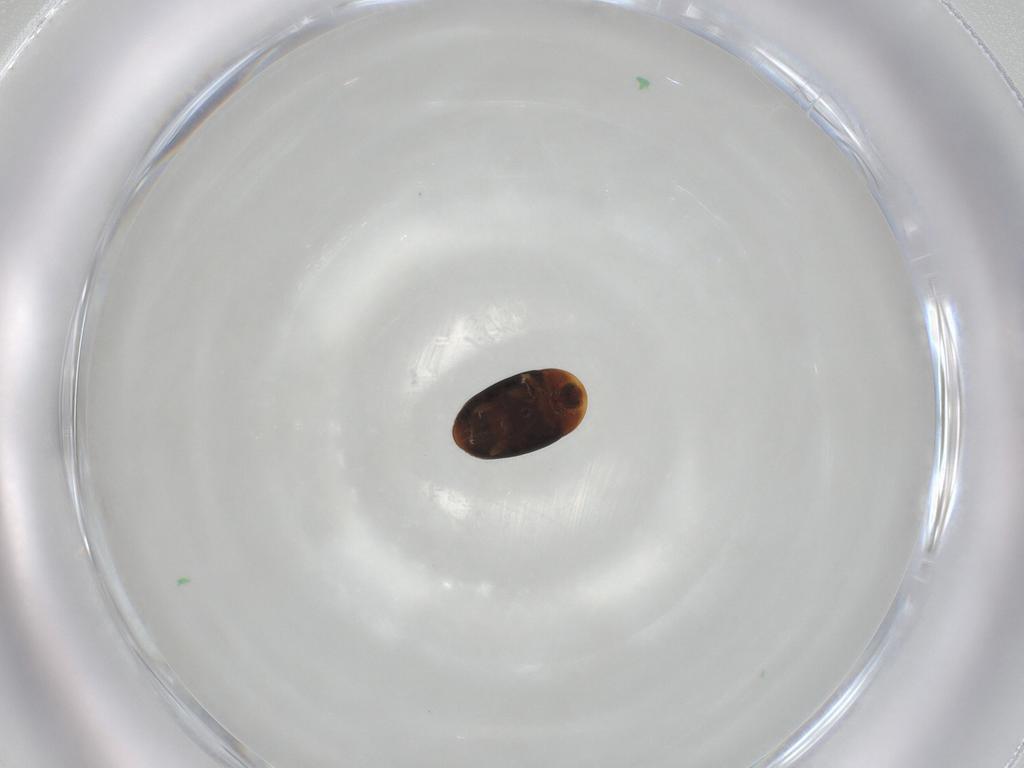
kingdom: Animalia
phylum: Arthropoda
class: Insecta
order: Coleoptera
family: Corylophidae
